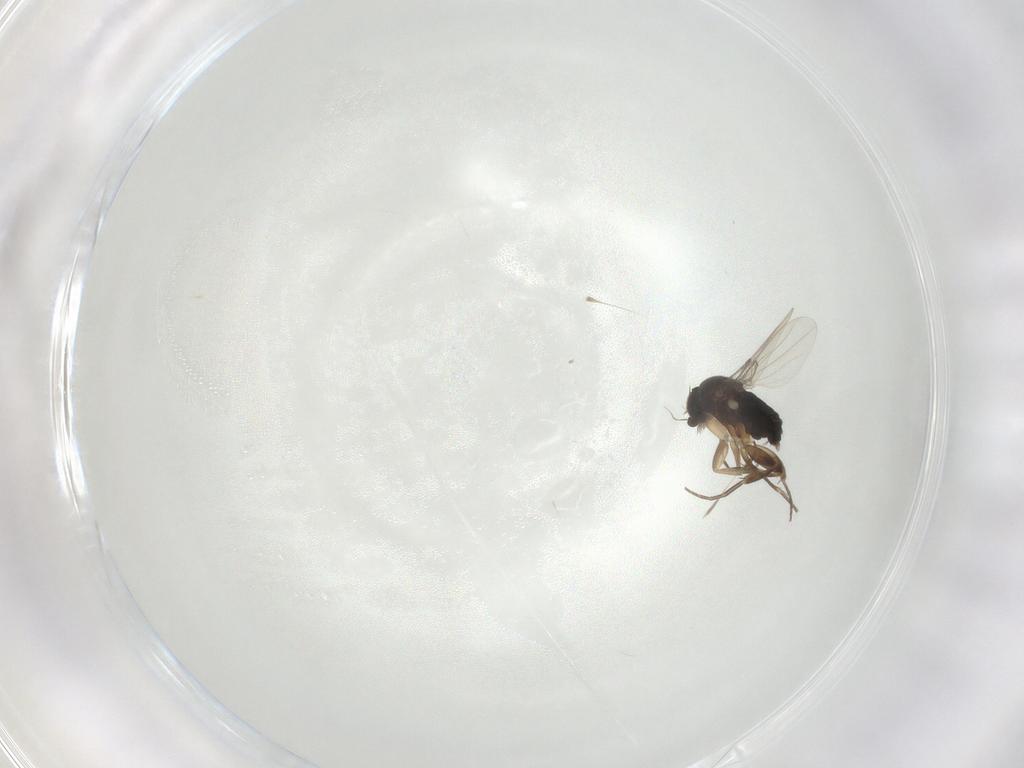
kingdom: Animalia
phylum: Arthropoda
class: Insecta
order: Diptera
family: Phoridae
